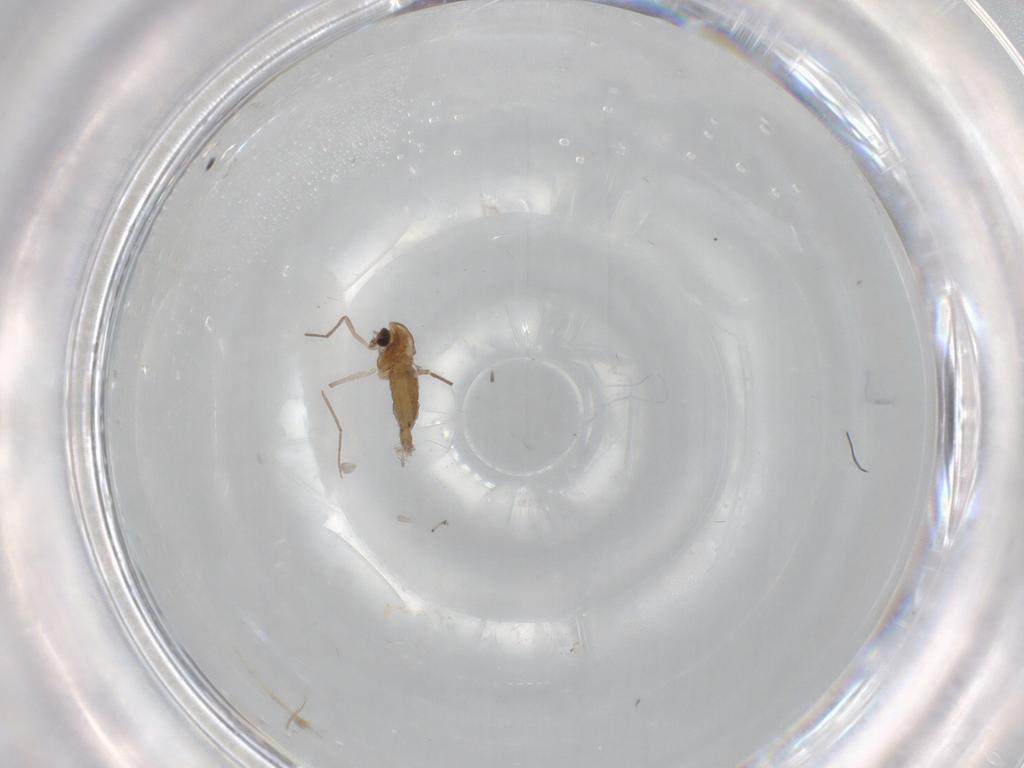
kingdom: Animalia
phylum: Arthropoda
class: Insecta
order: Diptera
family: Chironomidae
